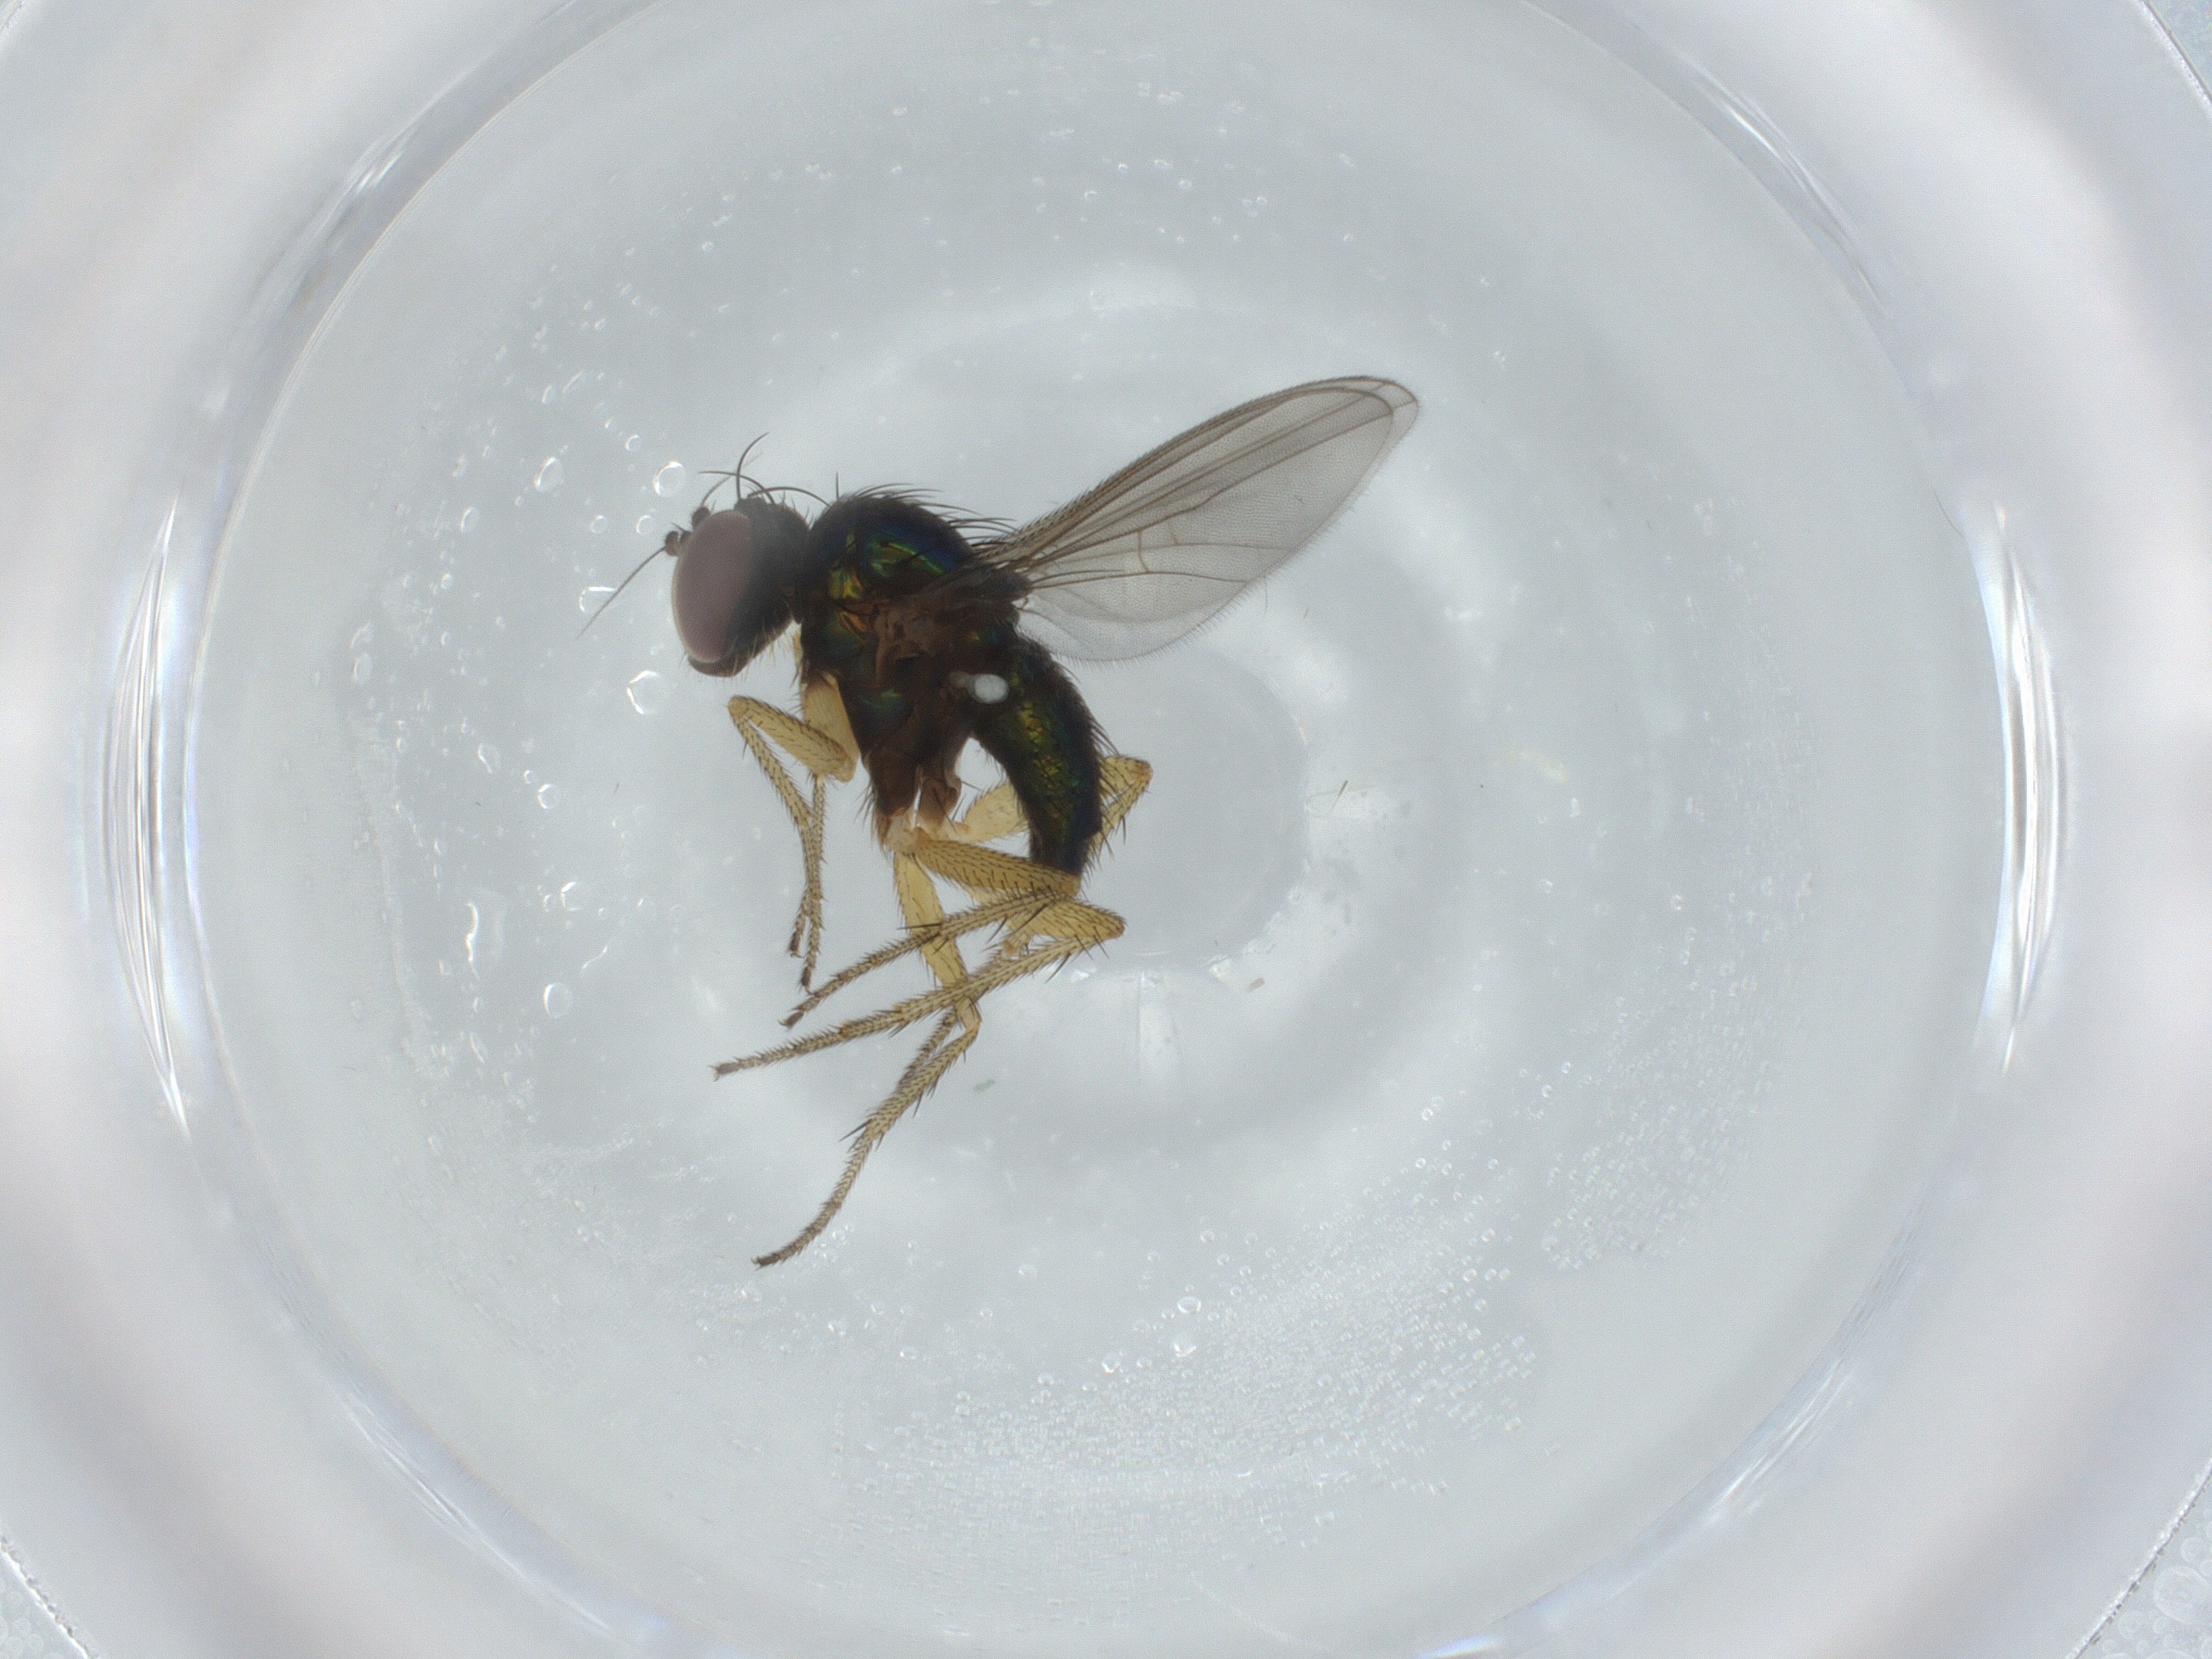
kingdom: Animalia
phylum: Arthropoda
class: Insecta
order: Diptera
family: Dolichopodidae
